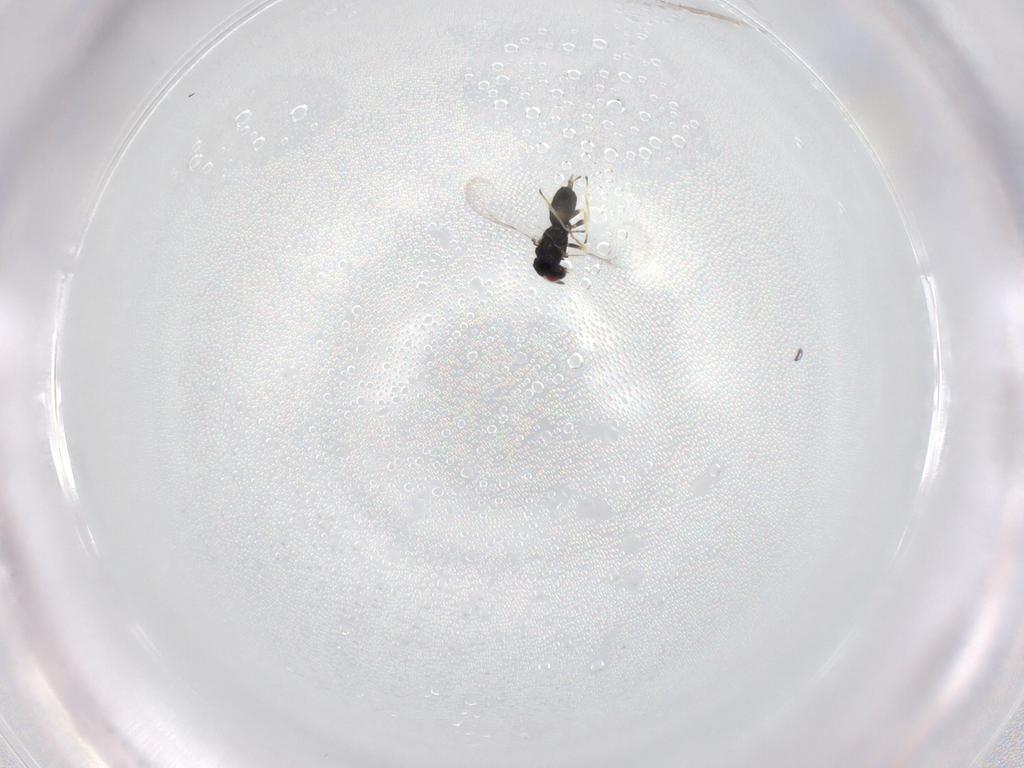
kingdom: Animalia
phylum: Arthropoda
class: Insecta
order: Hymenoptera
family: Eulophidae
